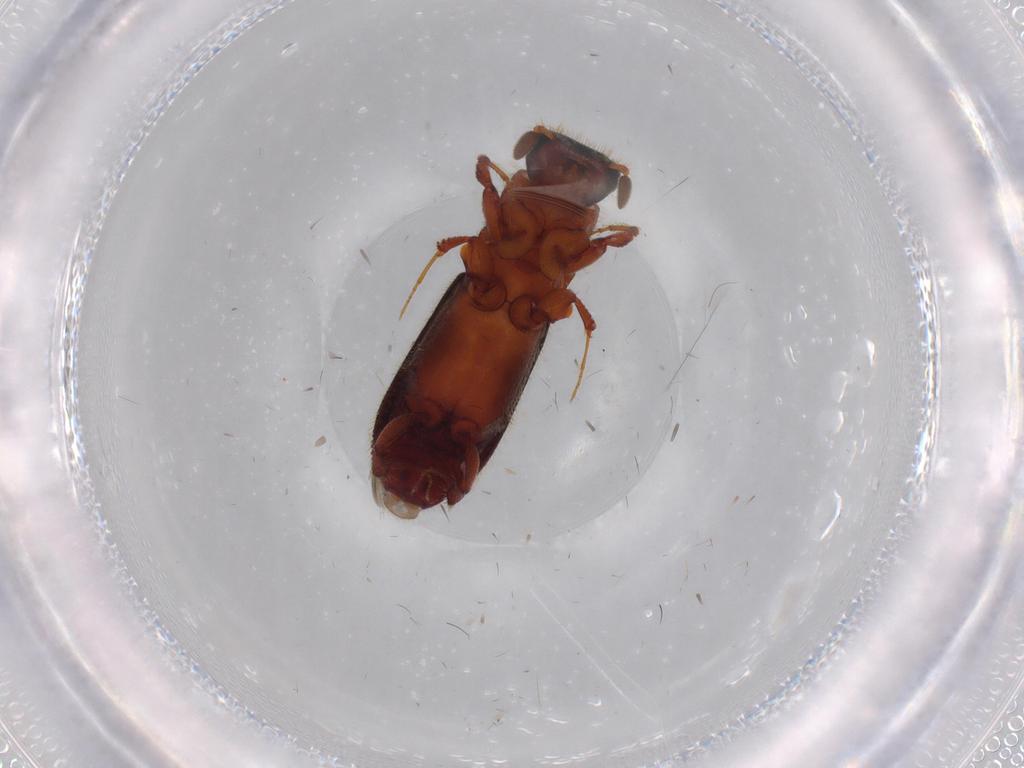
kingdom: Animalia
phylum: Arthropoda
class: Insecta
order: Coleoptera
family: Curculionidae
